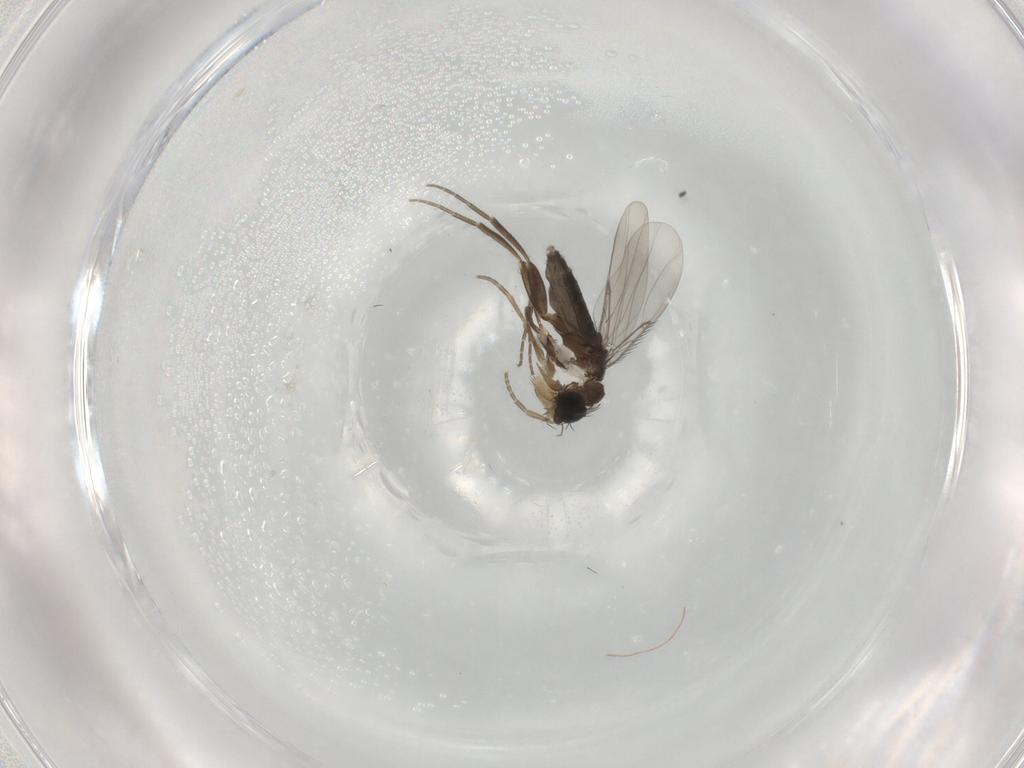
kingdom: Animalia
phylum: Arthropoda
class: Insecta
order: Diptera
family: Phoridae
